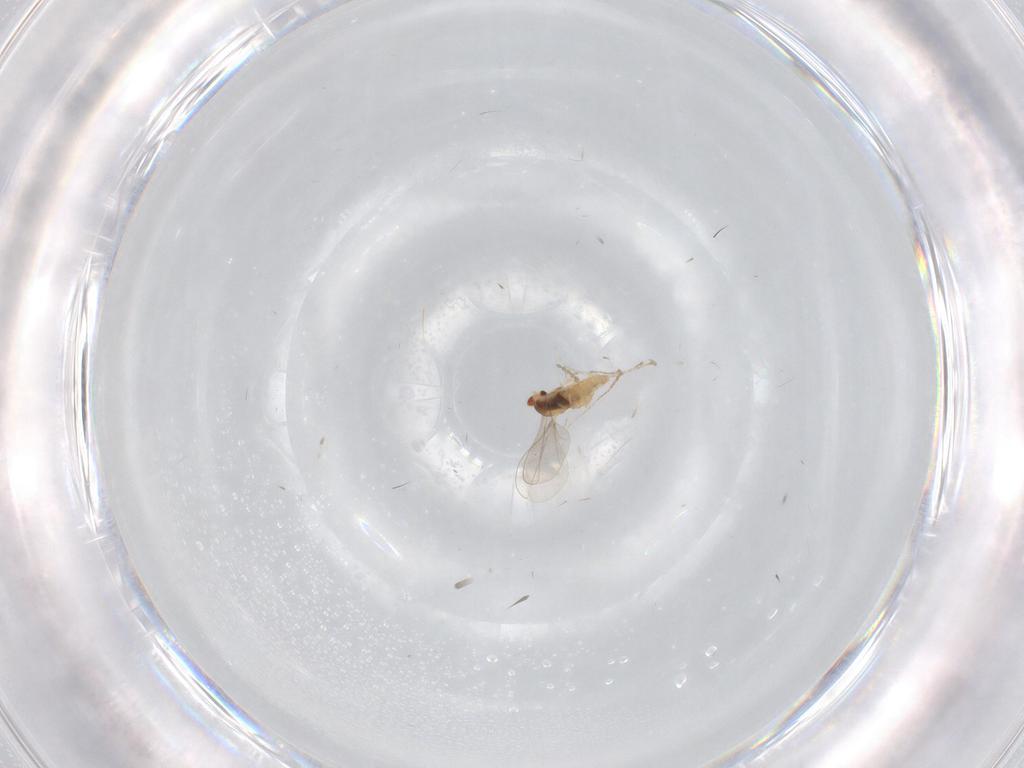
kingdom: Animalia
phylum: Arthropoda
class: Insecta
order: Diptera
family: Cecidomyiidae
